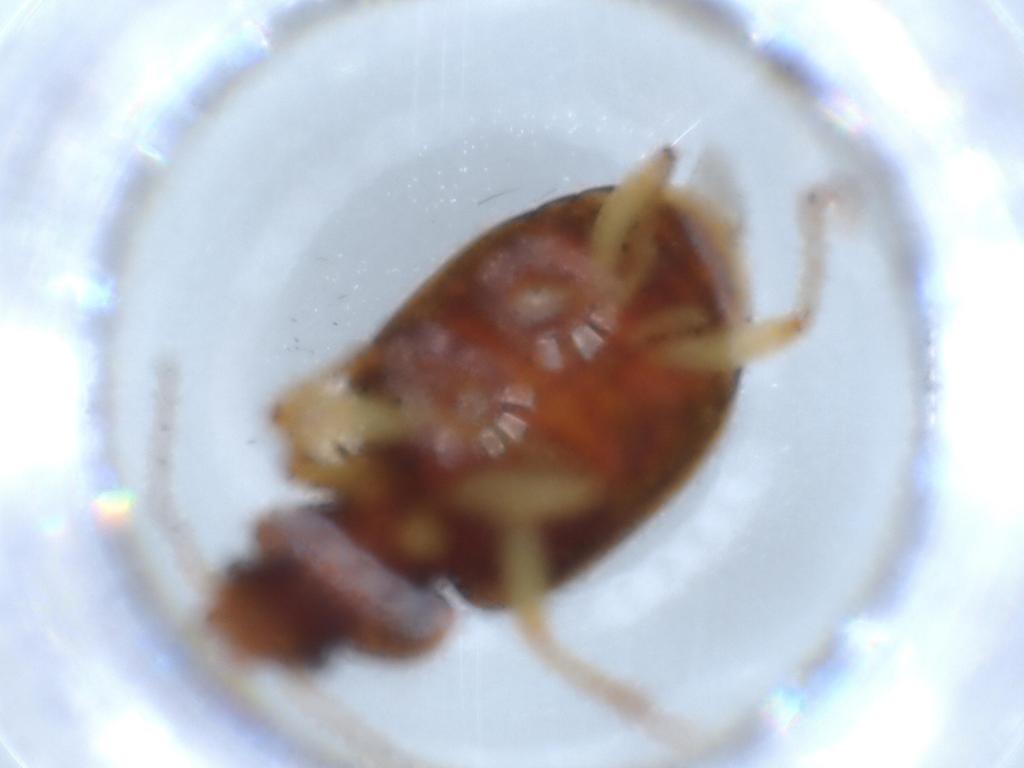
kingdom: Animalia
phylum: Arthropoda
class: Insecta
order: Coleoptera
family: Carabidae
